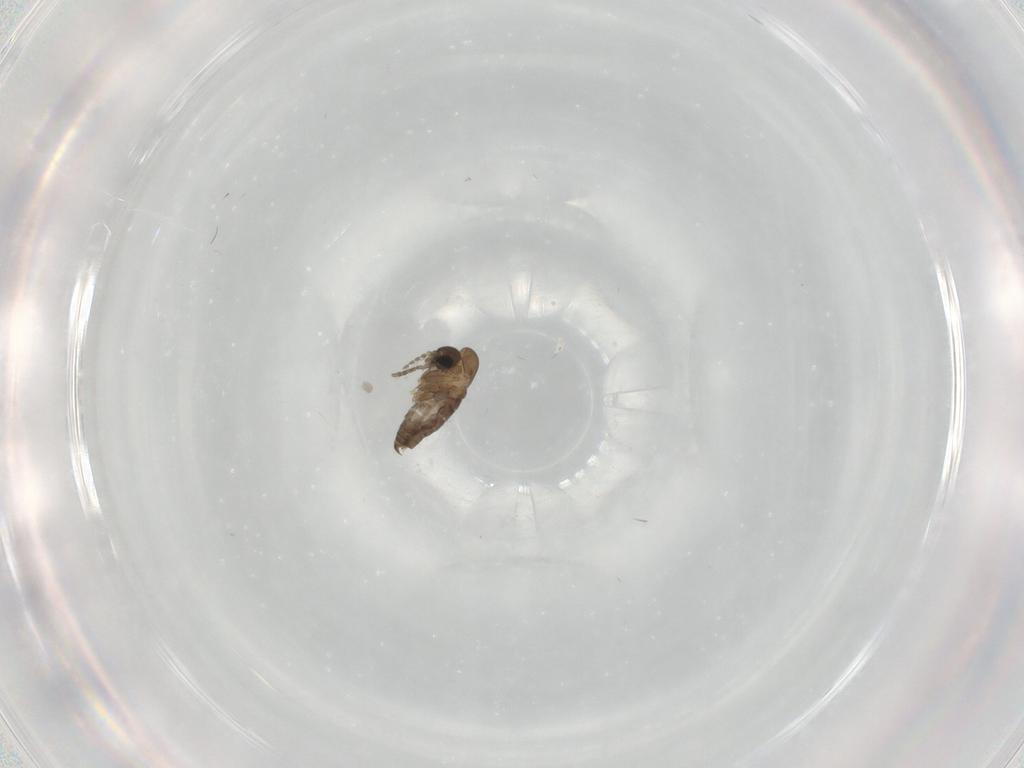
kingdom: Animalia
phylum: Arthropoda
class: Insecta
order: Diptera
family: Psychodidae
